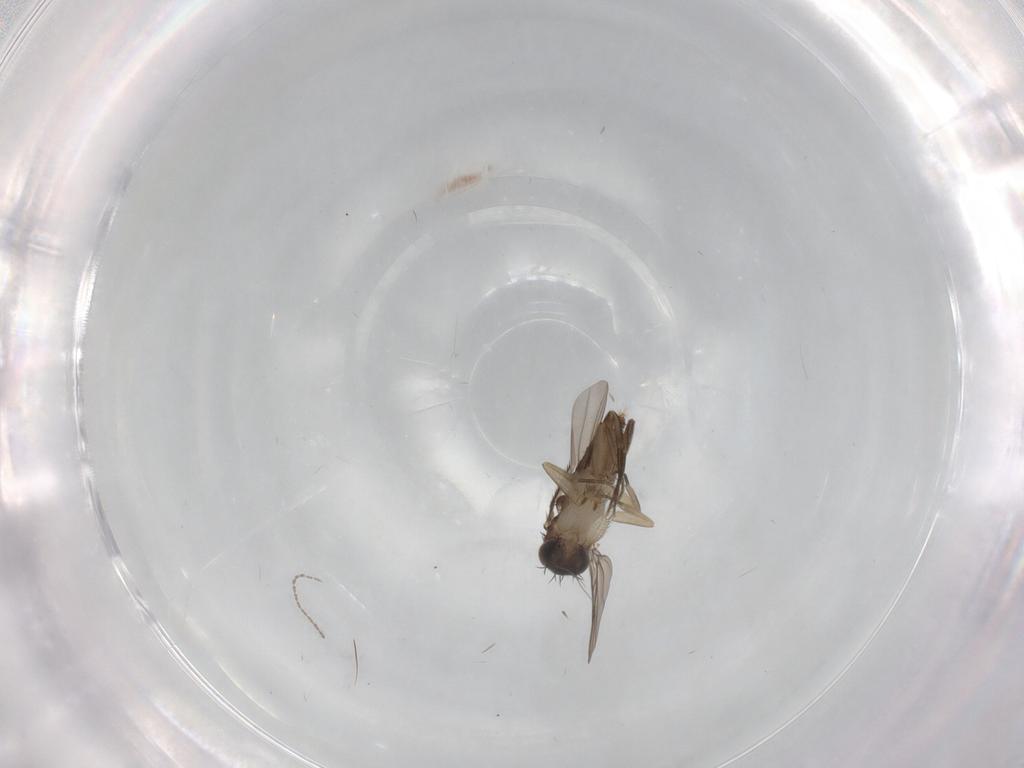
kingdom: Animalia
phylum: Arthropoda
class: Insecta
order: Diptera
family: Phoridae
